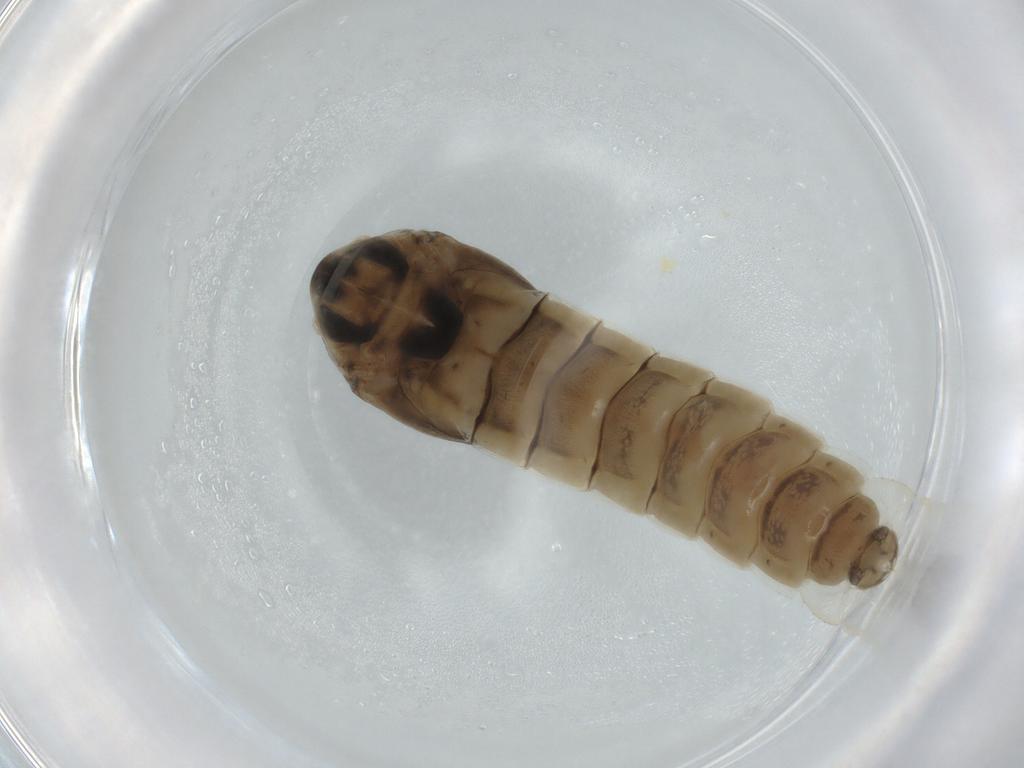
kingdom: Animalia
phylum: Arthropoda
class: Insecta
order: Diptera
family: Chironomidae
